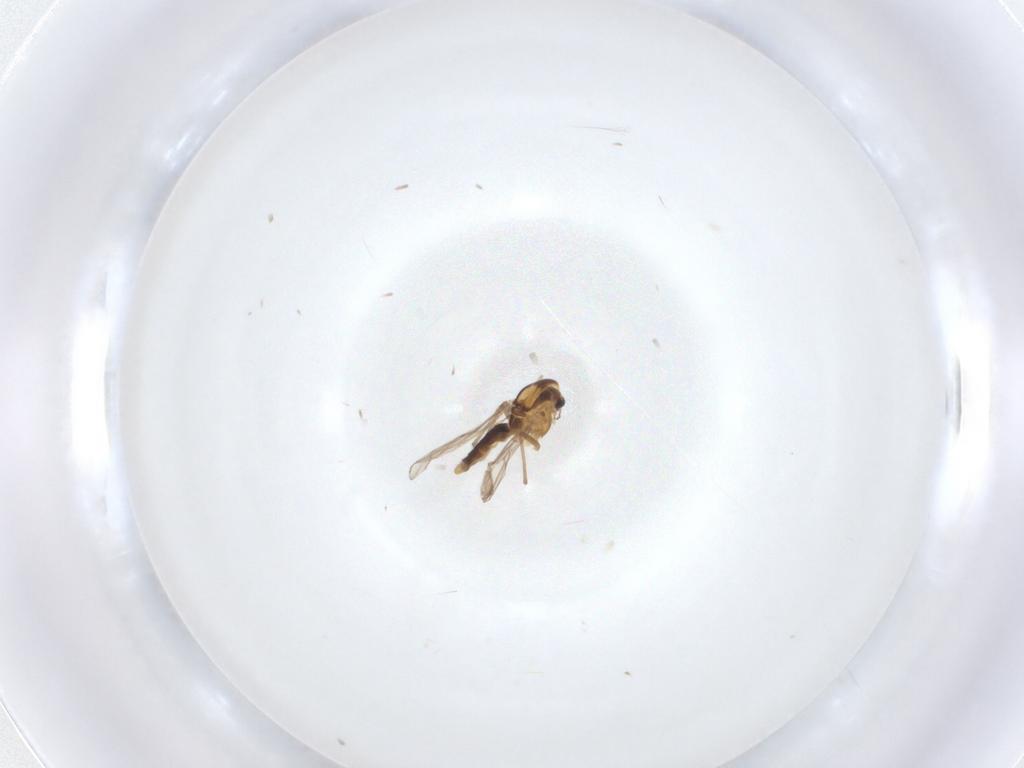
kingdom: Animalia
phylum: Arthropoda
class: Insecta
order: Diptera
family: Chironomidae
